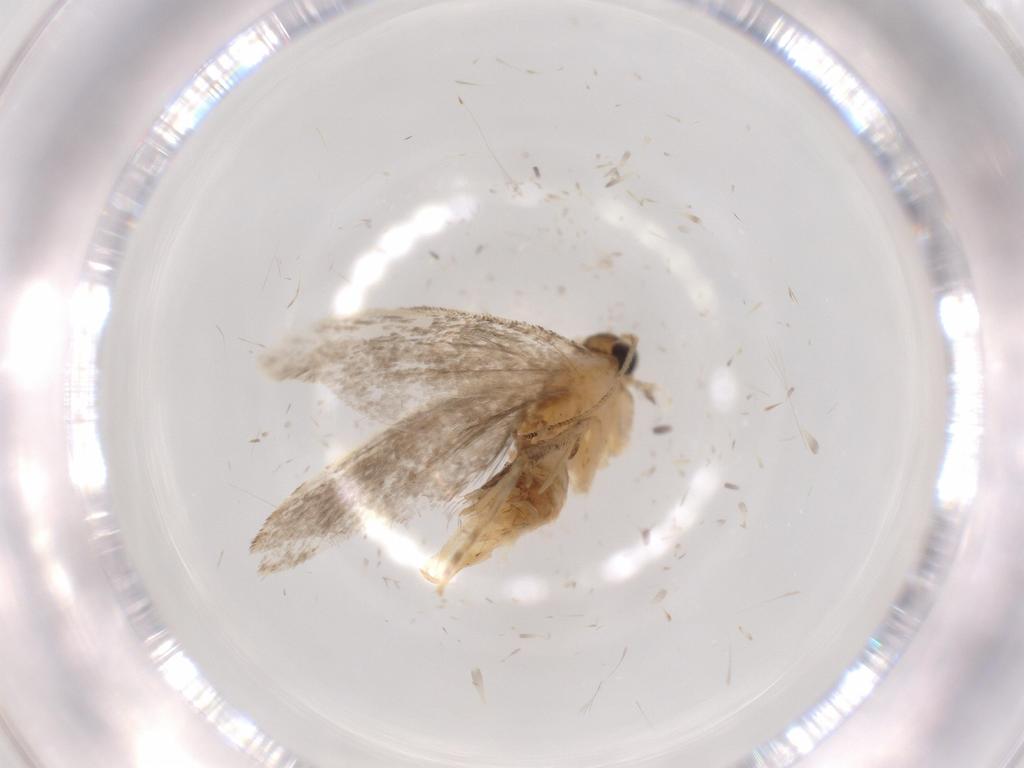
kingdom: Animalia
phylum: Arthropoda
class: Insecta
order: Lepidoptera
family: Tineidae
